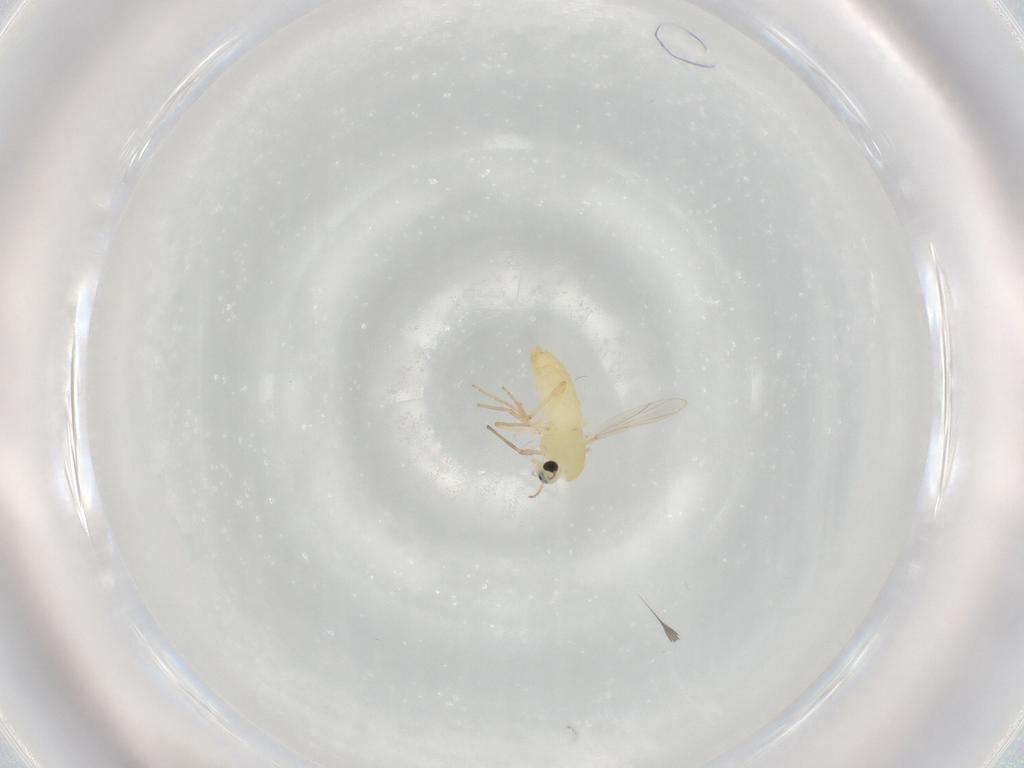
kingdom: Animalia
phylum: Arthropoda
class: Insecta
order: Diptera
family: Chironomidae
